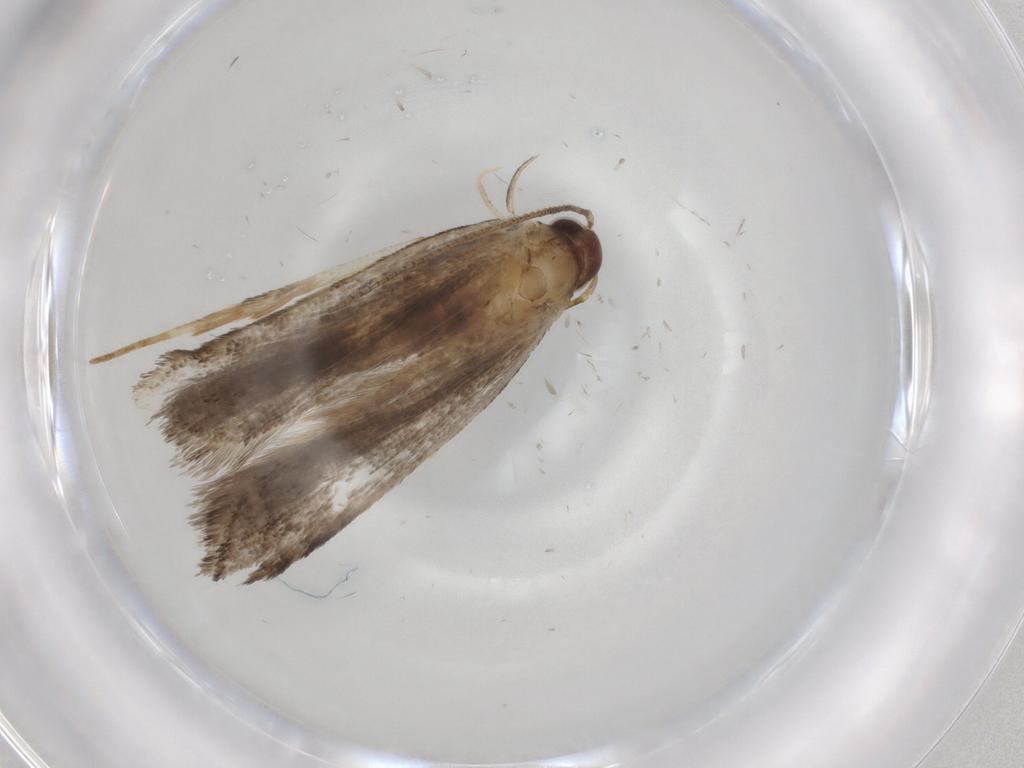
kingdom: Animalia
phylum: Arthropoda
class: Insecta
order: Lepidoptera
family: Gelechiidae
